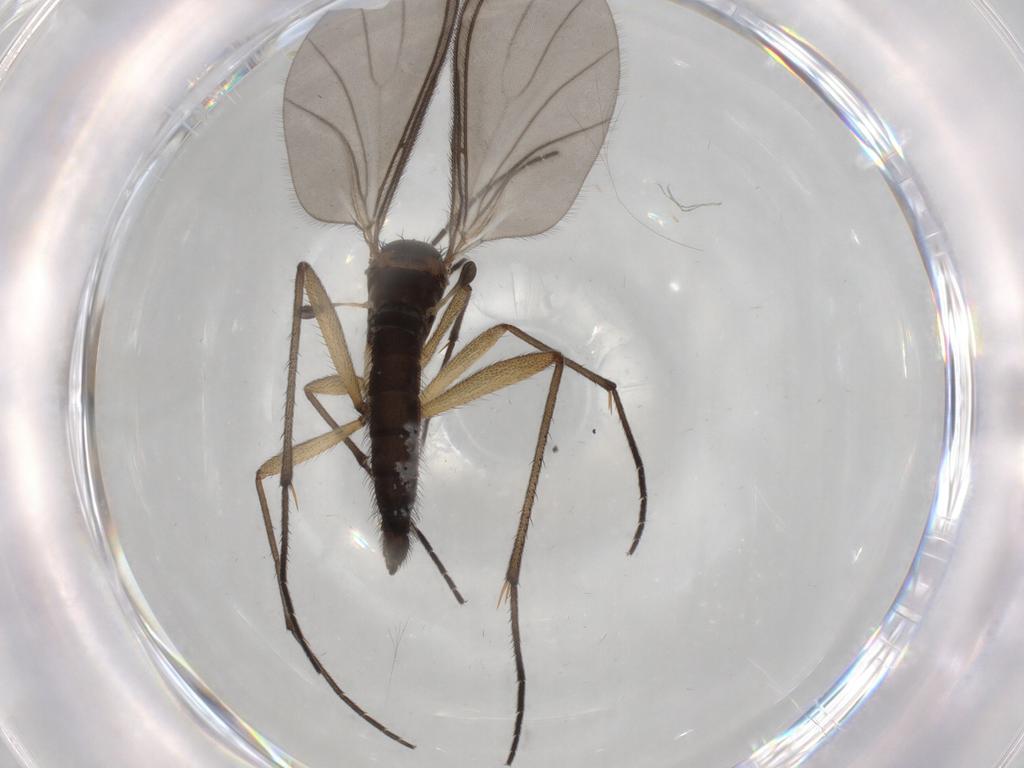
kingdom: Animalia
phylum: Arthropoda
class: Insecta
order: Diptera
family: Sciaridae
